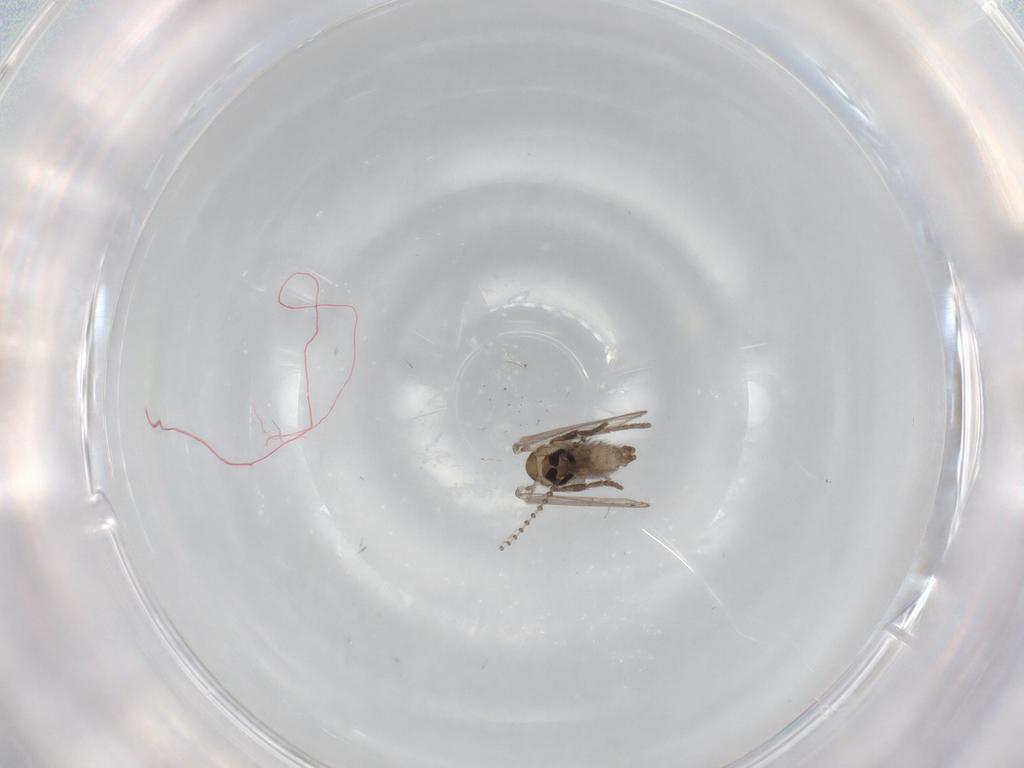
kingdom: Animalia
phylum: Arthropoda
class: Insecta
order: Diptera
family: Psychodidae
